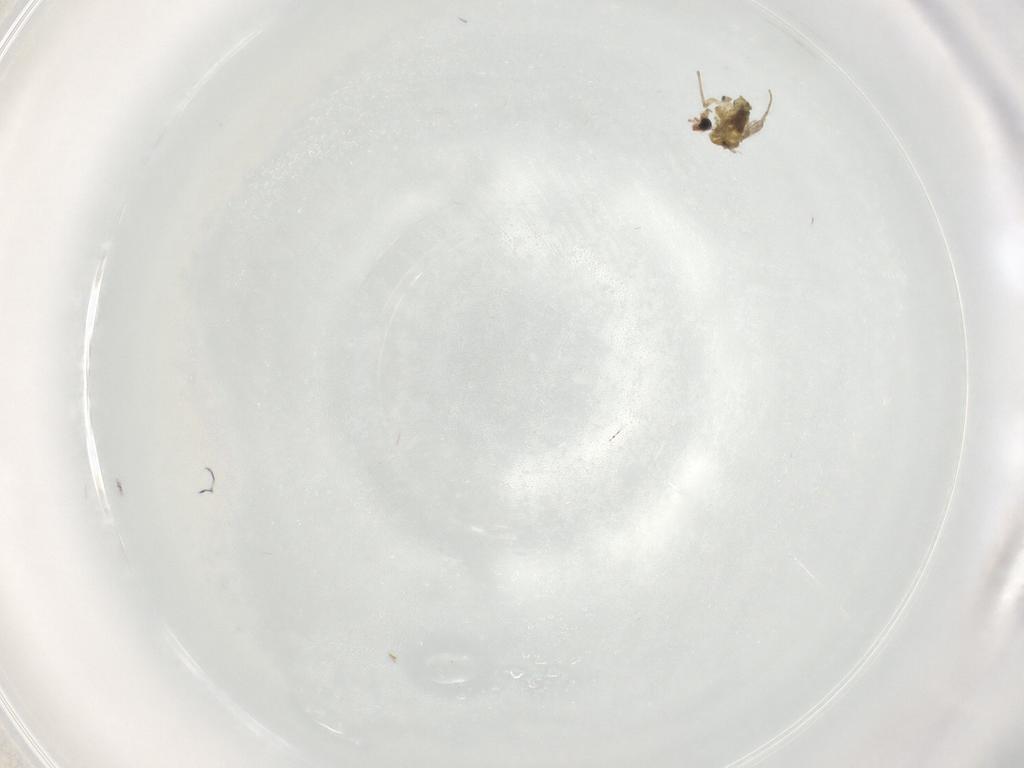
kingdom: Animalia
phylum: Arthropoda
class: Insecta
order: Diptera
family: Chironomidae
